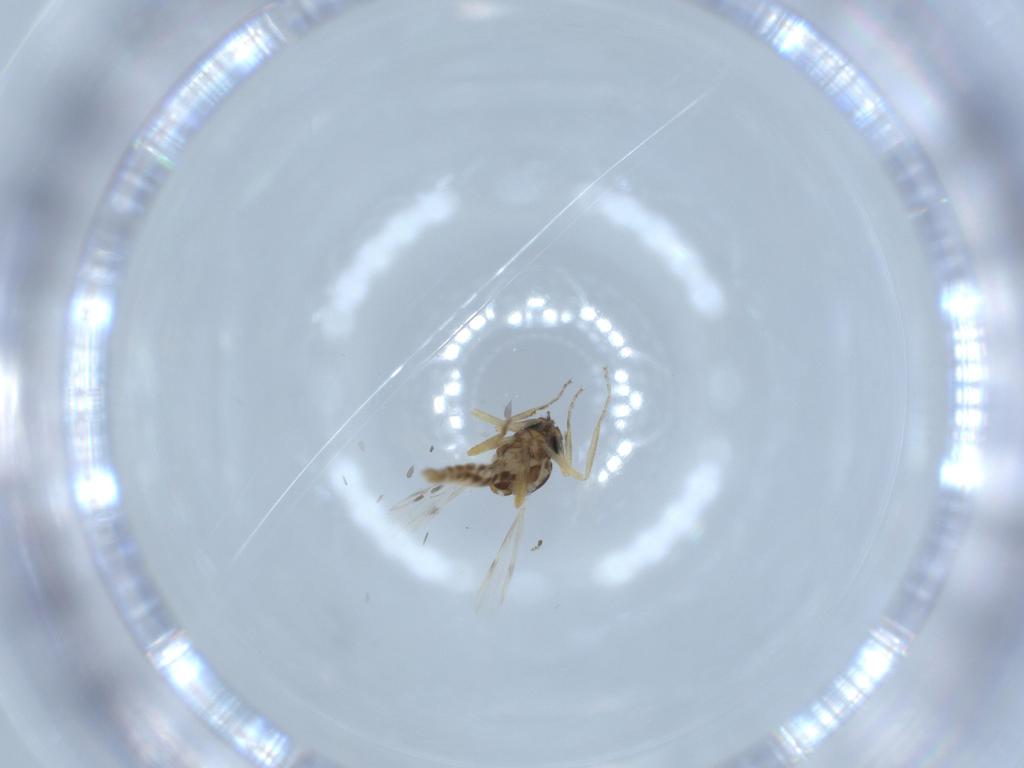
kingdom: Animalia
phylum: Arthropoda
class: Insecta
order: Diptera
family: Ceratopogonidae
